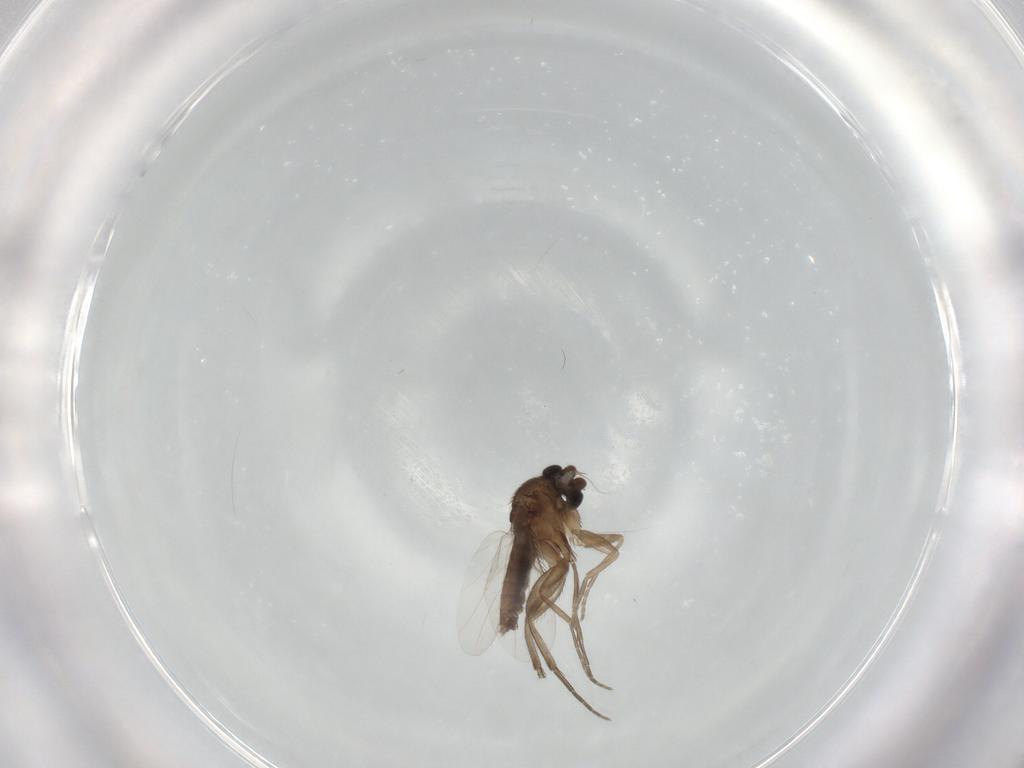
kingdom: Animalia
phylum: Arthropoda
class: Insecta
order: Diptera
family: Phoridae
